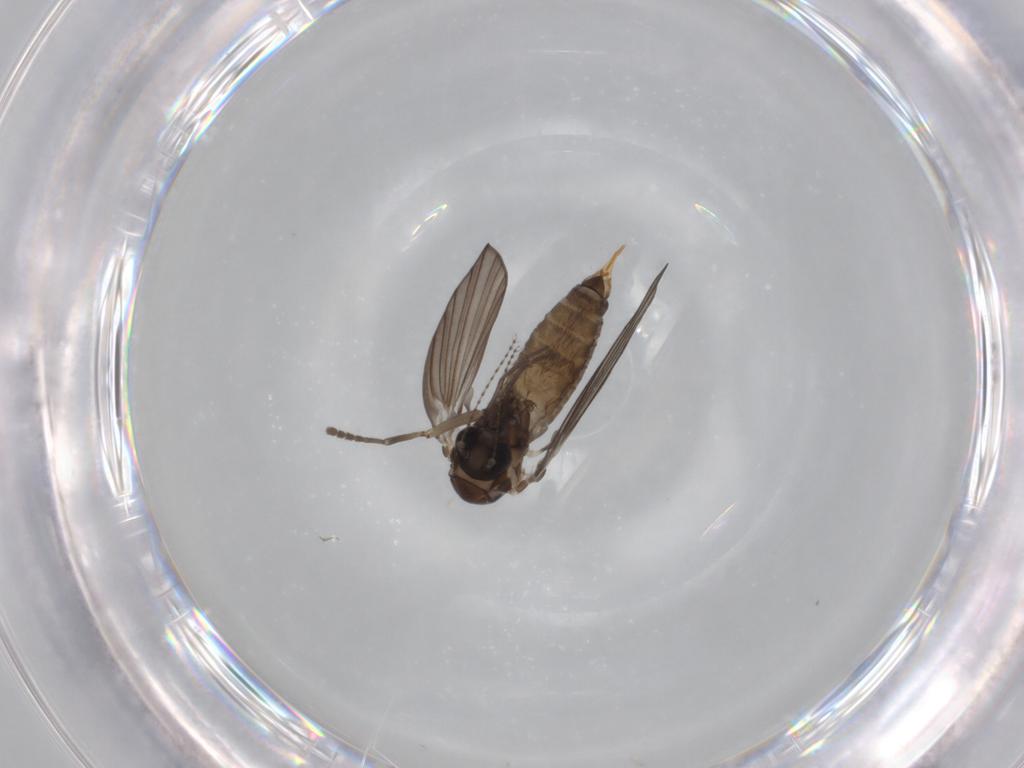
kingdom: Animalia
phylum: Arthropoda
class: Insecta
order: Diptera
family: Psychodidae
